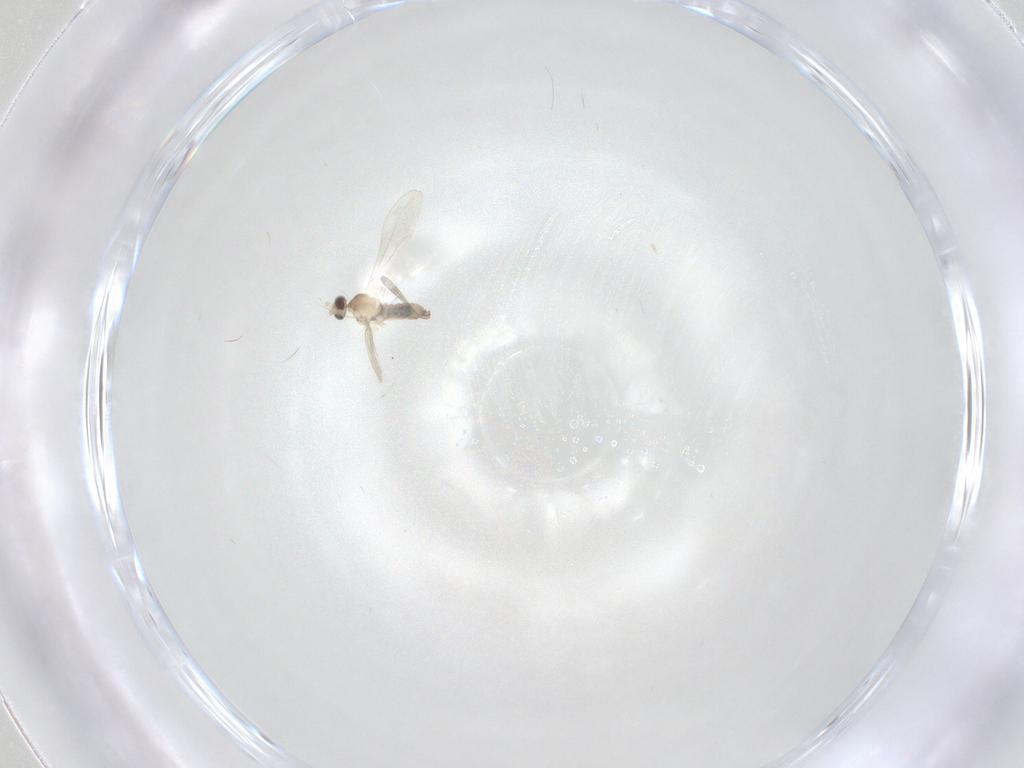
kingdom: Animalia
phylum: Arthropoda
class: Insecta
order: Diptera
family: Cecidomyiidae
